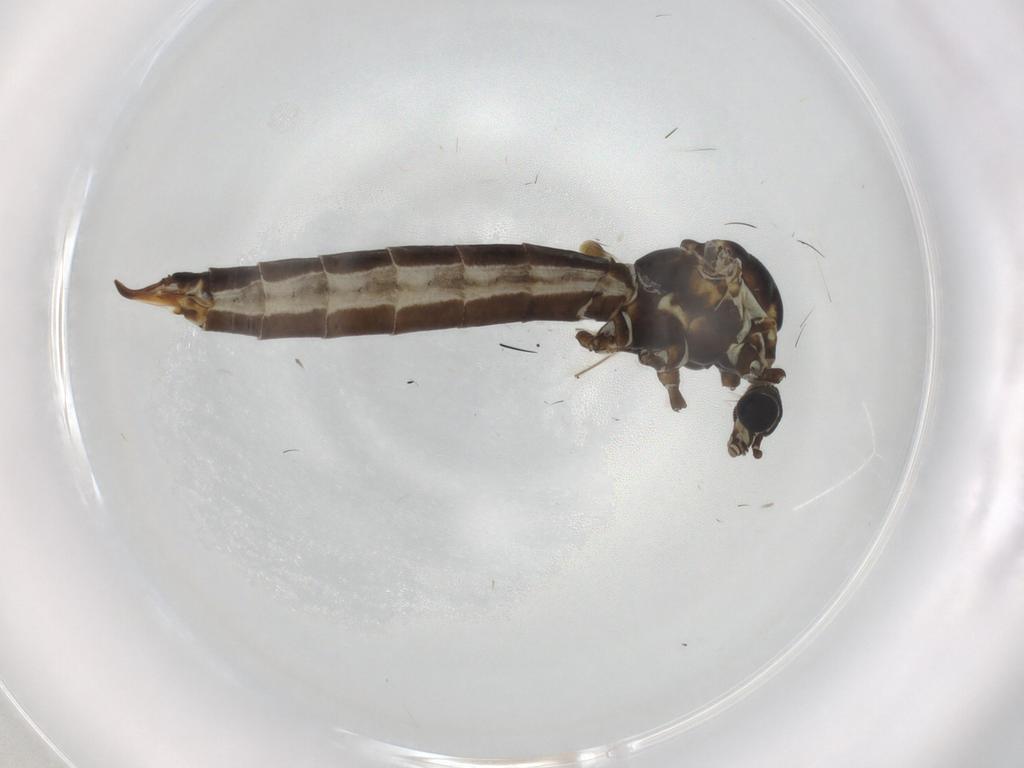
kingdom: Animalia
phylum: Arthropoda
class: Insecta
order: Diptera
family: Limoniidae
